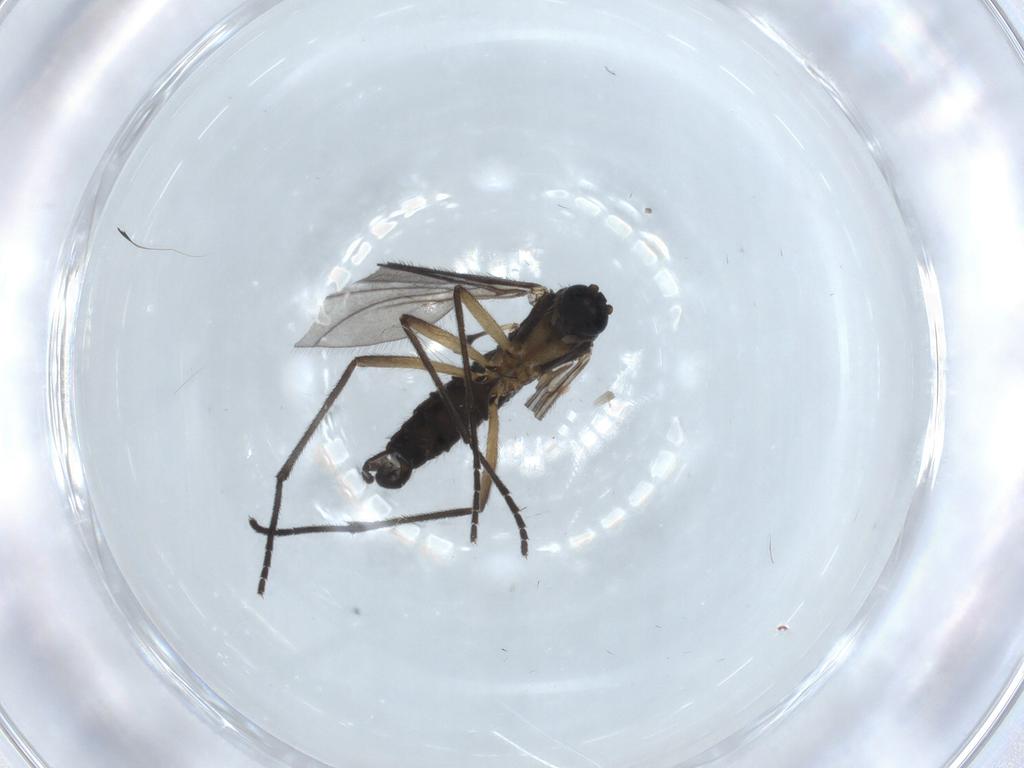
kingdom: Animalia
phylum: Arthropoda
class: Insecta
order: Diptera
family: Sciaridae
